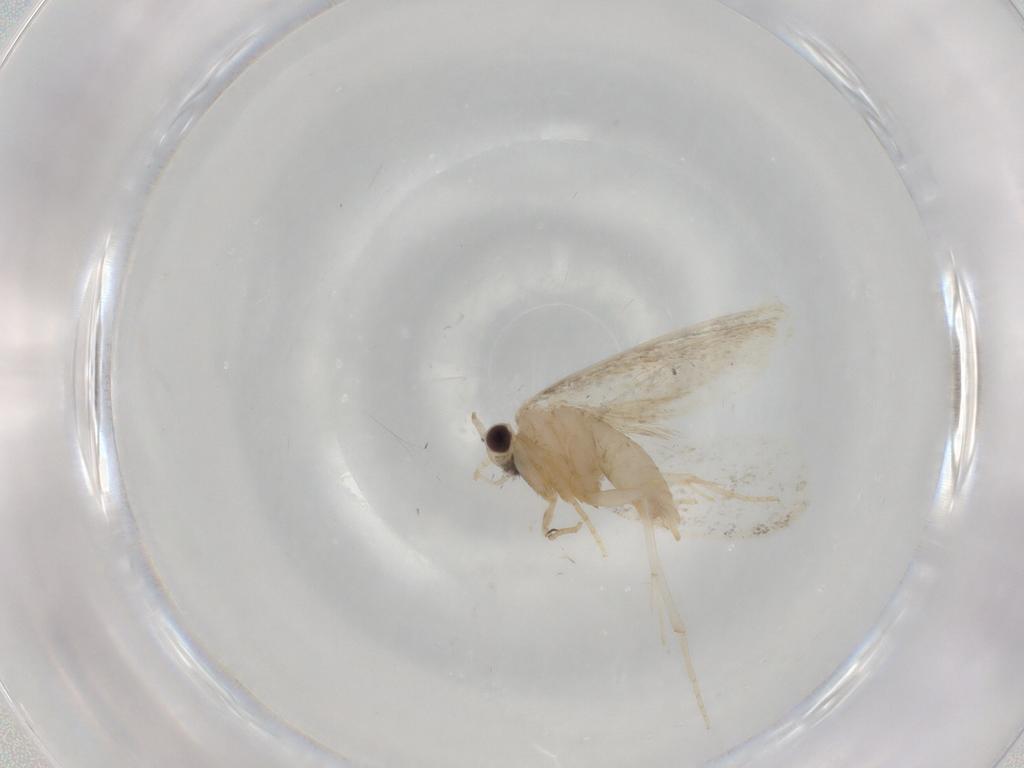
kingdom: Animalia
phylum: Arthropoda
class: Insecta
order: Lepidoptera
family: Psychidae
